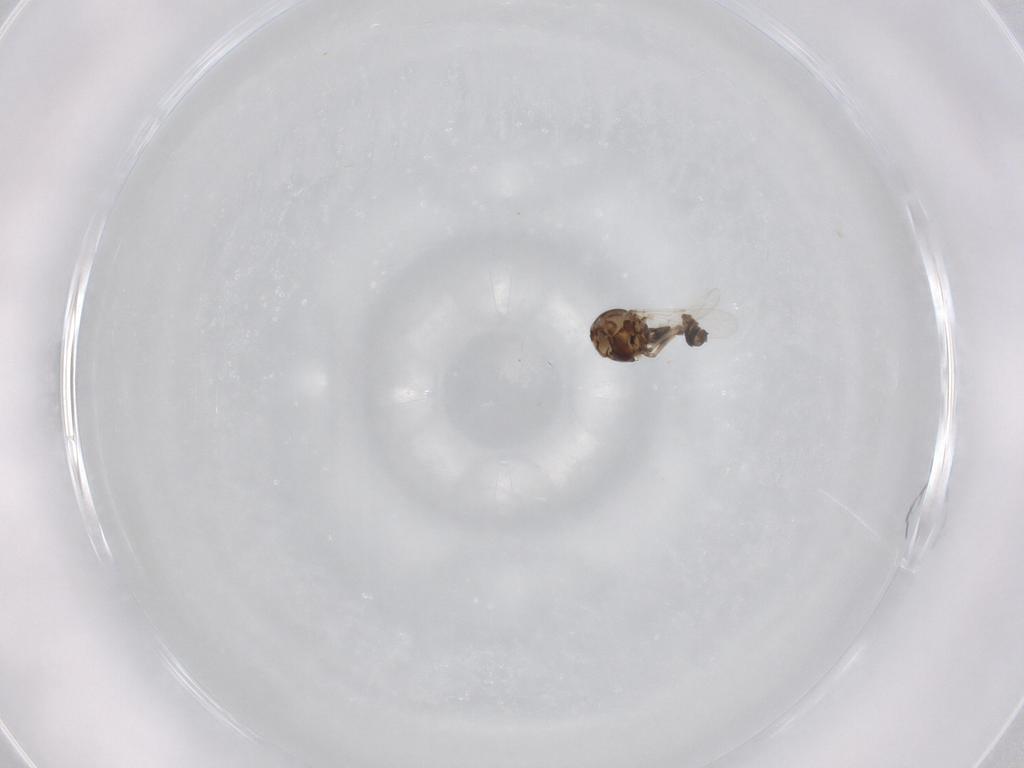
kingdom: Animalia
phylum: Arthropoda
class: Insecta
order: Diptera
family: Ceratopogonidae
